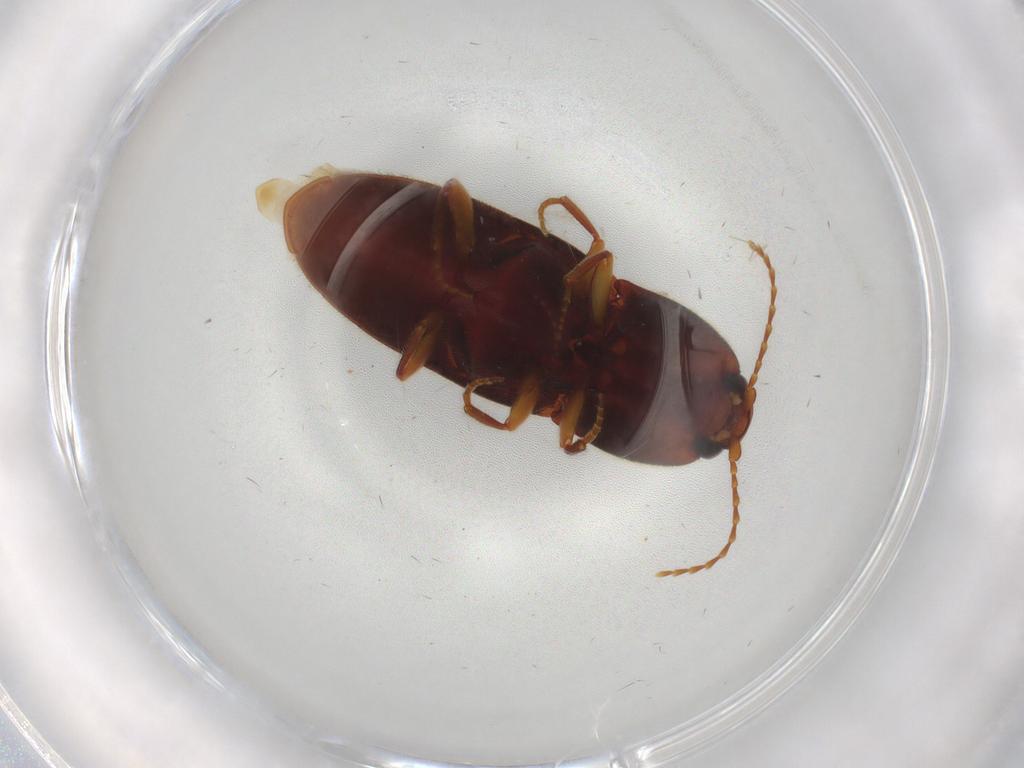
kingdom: Animalia
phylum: Arthropoda
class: Insecta
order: Coleoptera
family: Elateridae
